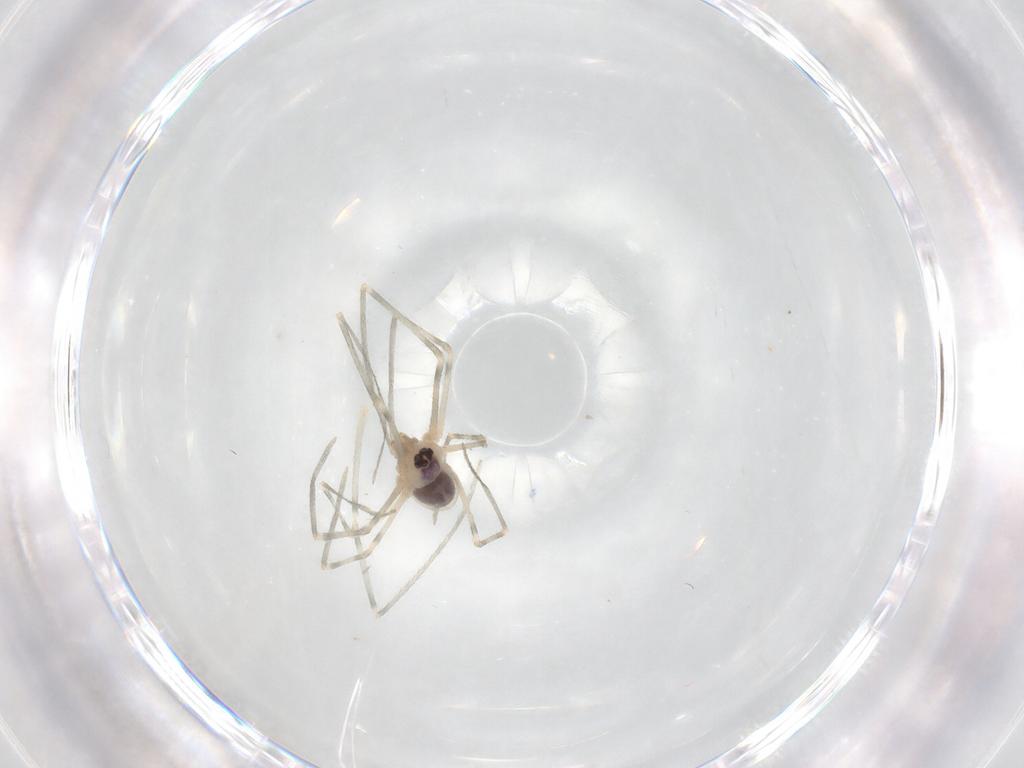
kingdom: Animalia
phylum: Arthropoda
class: Arachnida
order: Araneae
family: Pholcidae
